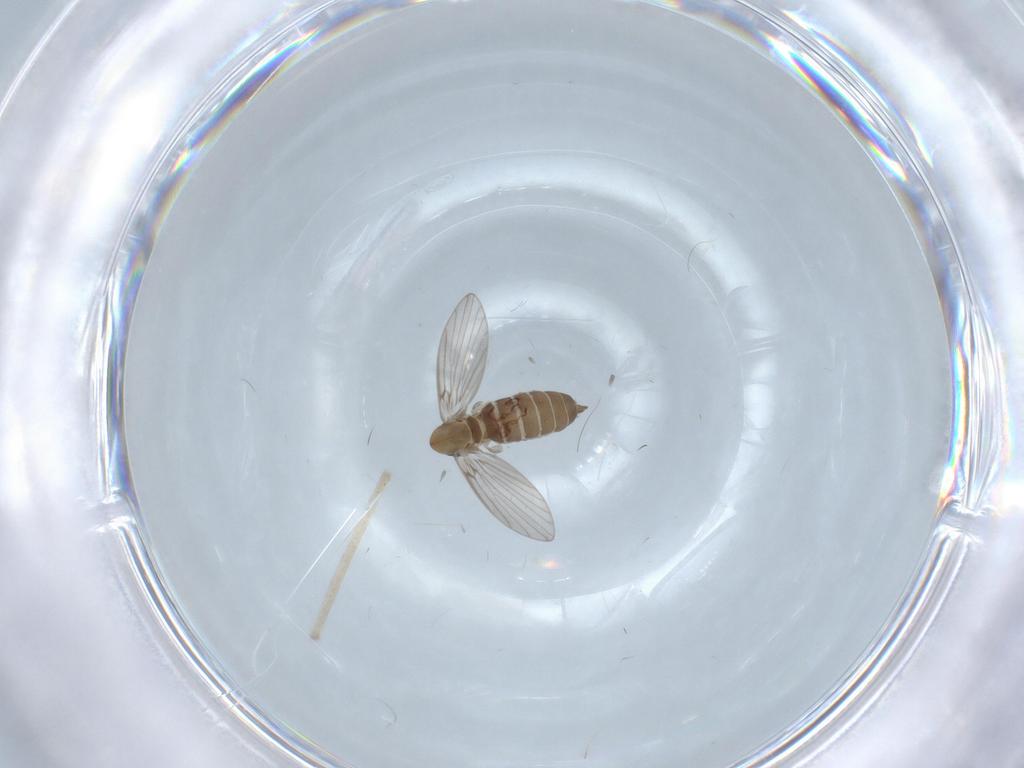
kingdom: Animalia
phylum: Arthropoda
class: Insecta
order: Diptera
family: Psychodidae
